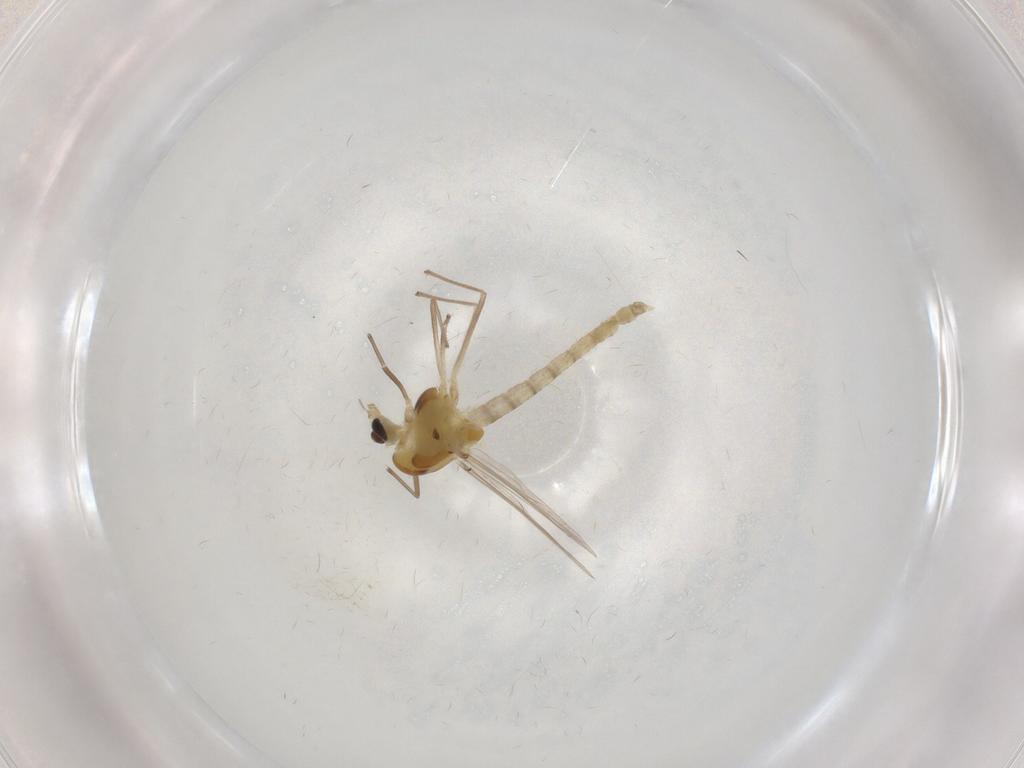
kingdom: Animalia
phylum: Arthropoda
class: Insecta
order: Diptera
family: Chironomidae
